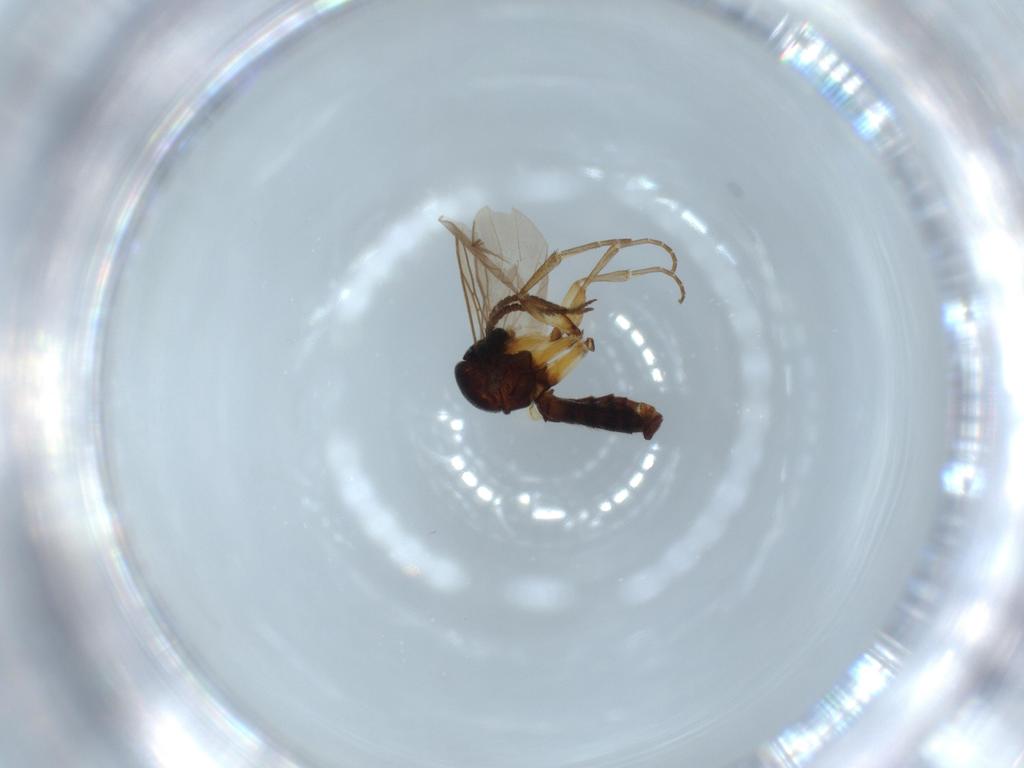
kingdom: Animalia
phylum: Arthropoda
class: Insecta
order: Diptera
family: Mycetophilidae
